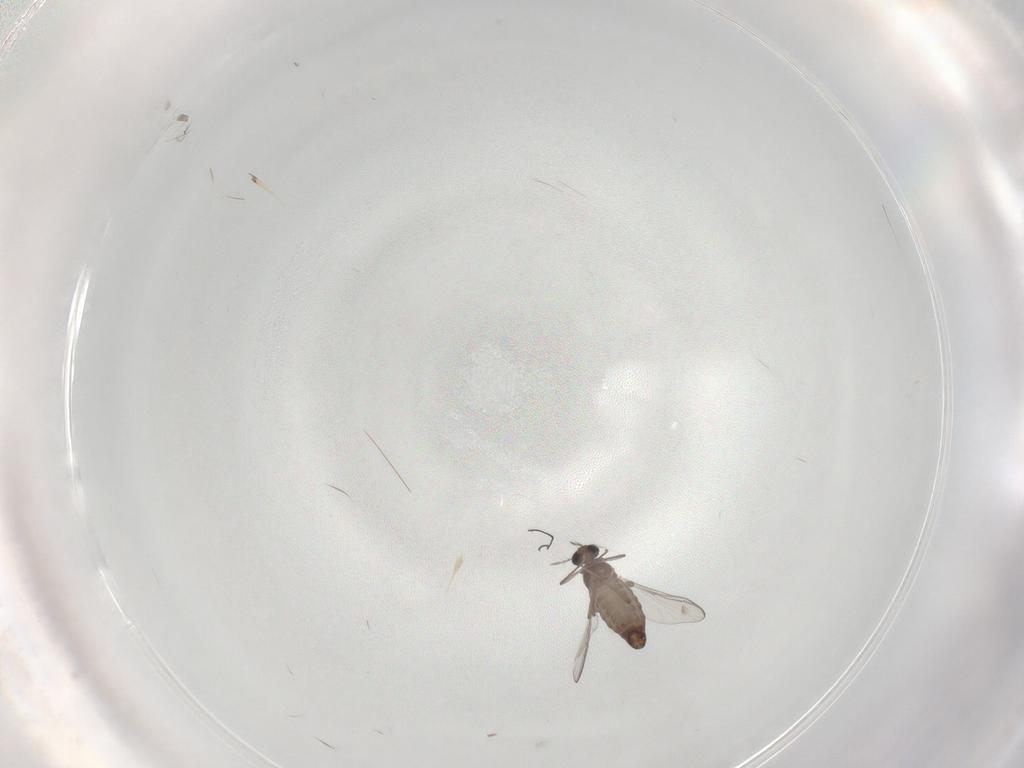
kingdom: Animalia
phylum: Arthropoda
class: Insecta
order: Diptera
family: Chironomidae
